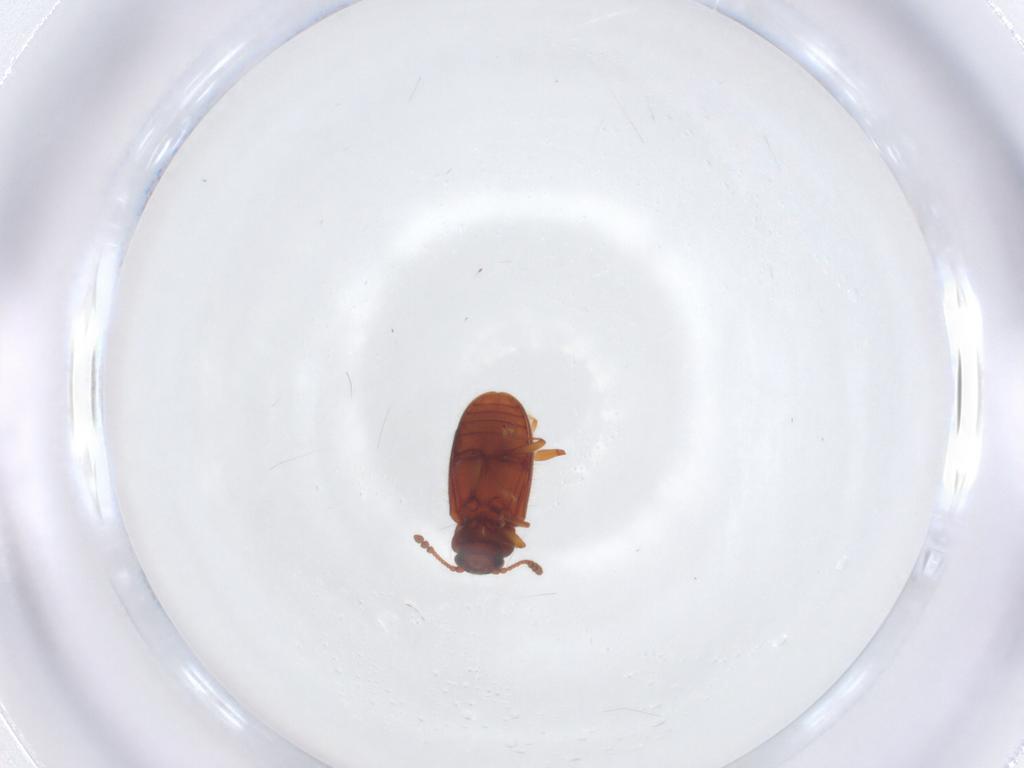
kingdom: Animalia
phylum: Arthropoda
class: Insecta
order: Coleoptera
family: Cryptophagidae
